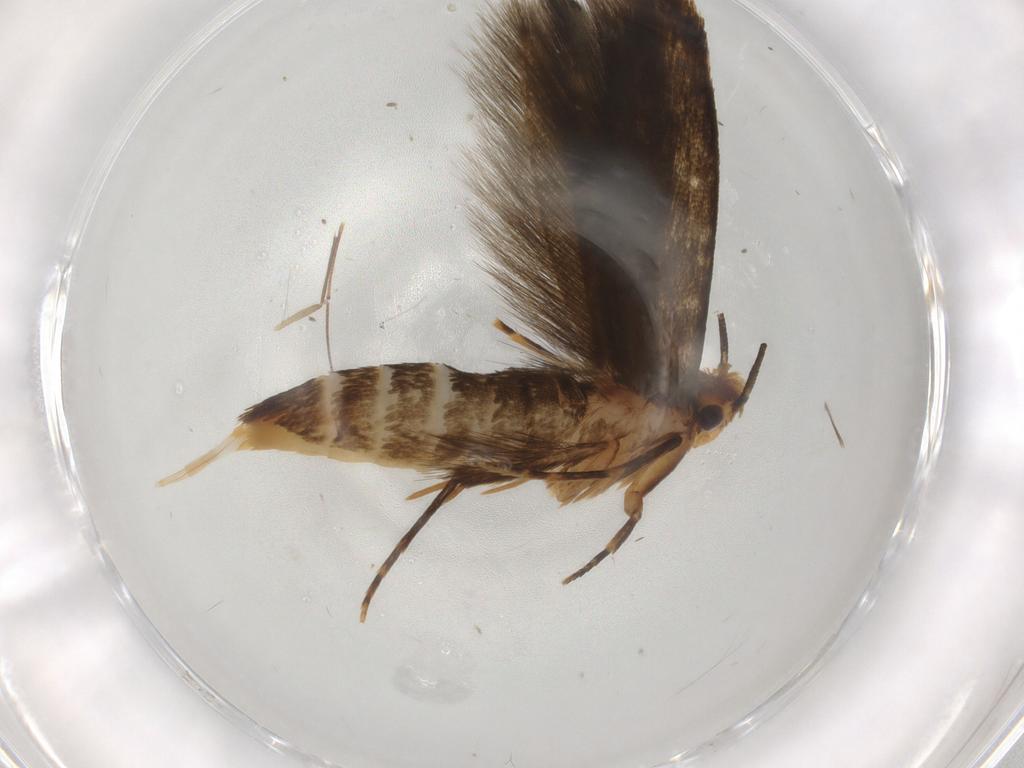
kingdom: Animalia
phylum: Arthropoda
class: Insecta
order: Lepidoptera
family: Tineidae
